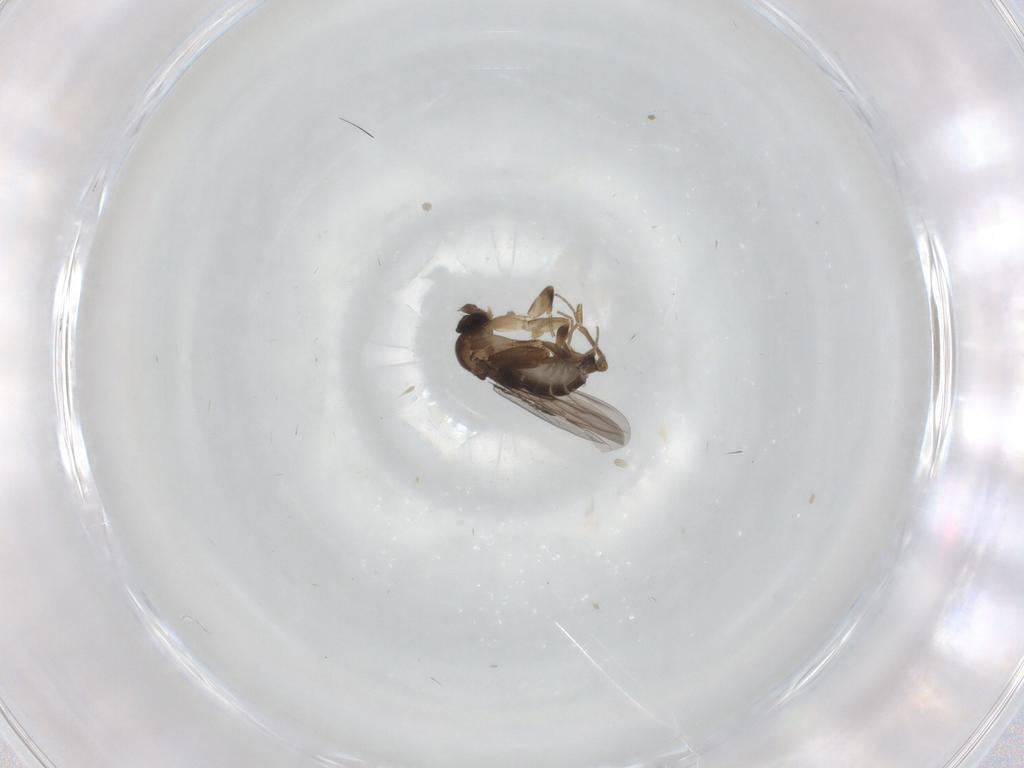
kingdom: Animalia
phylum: Arthropoda
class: Insecta
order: Diptera
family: Phoridae
